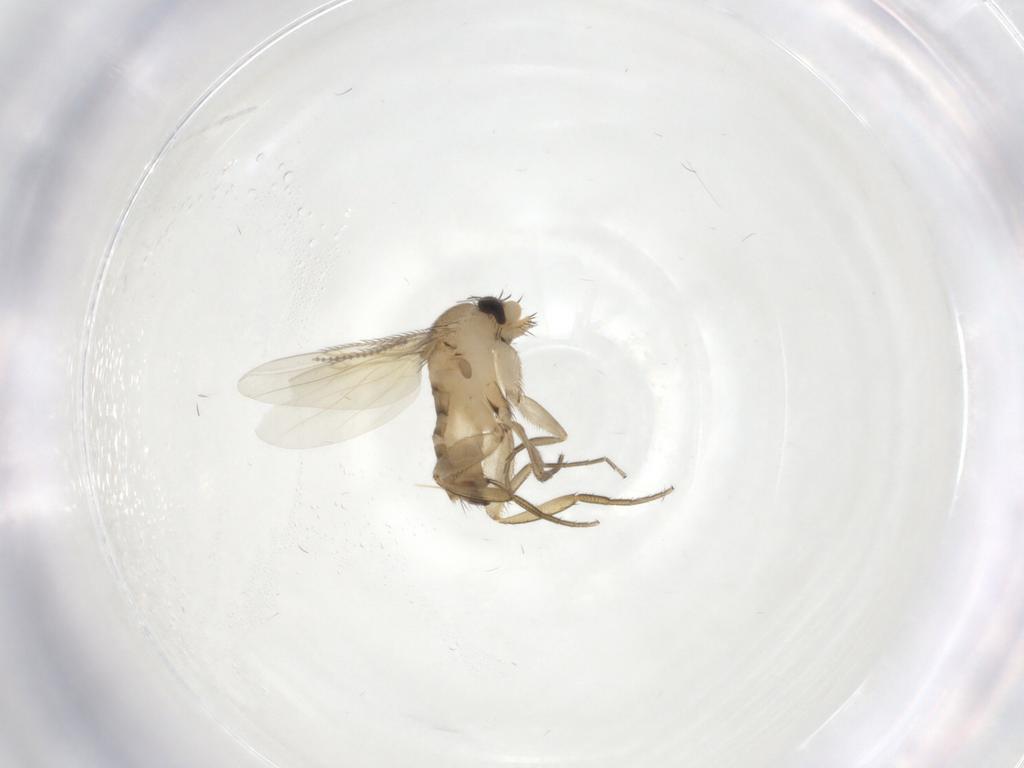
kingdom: Animalia
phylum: Arthropoda
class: Insecta
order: Diptera
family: Phoridae
